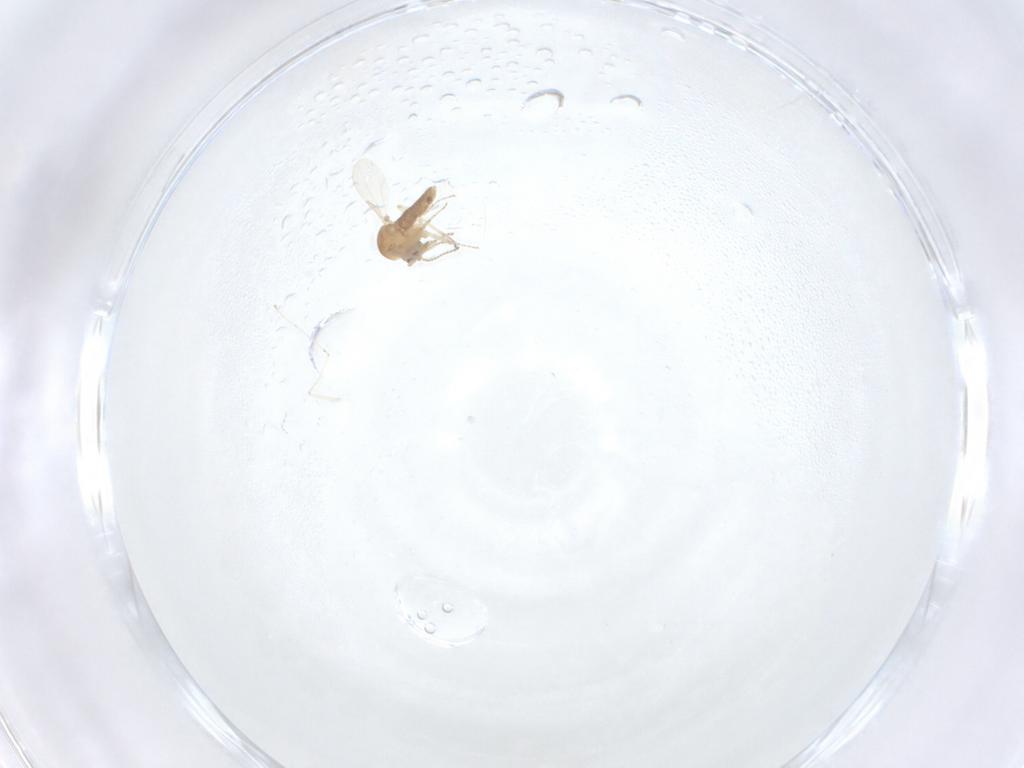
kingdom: Animalia
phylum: Arthropoda
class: Insecta
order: Diptera
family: Ceratopogonidae
